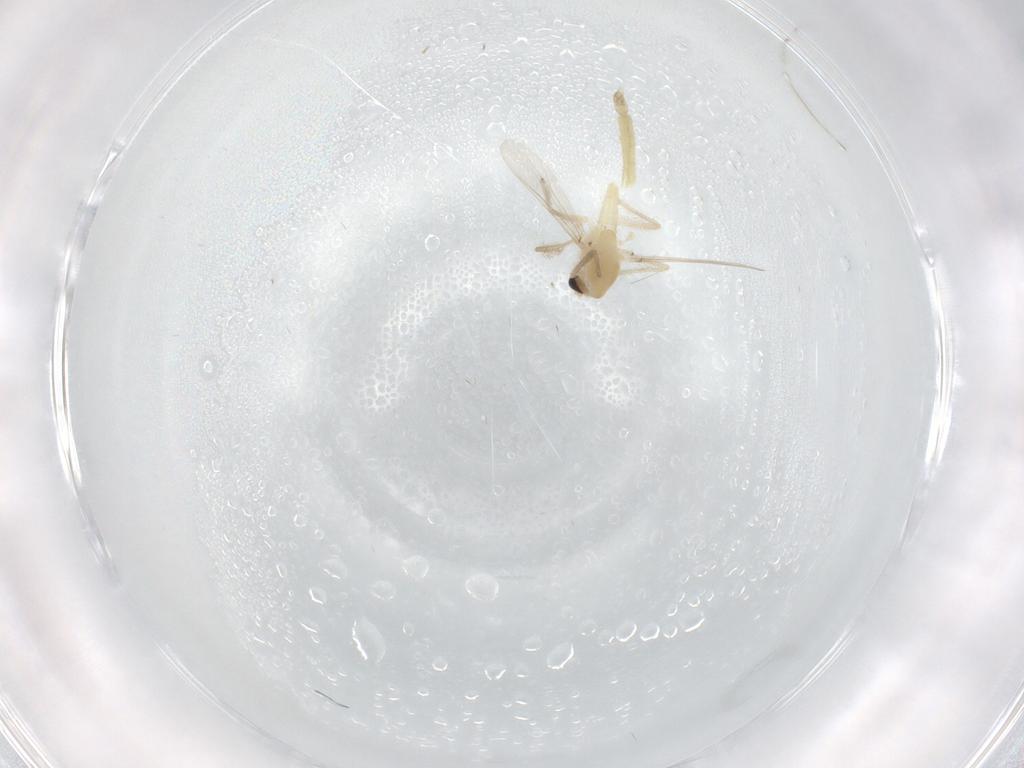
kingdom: Animalia
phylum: Arthropoda
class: Insecta
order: Diptera
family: Chironomidae
